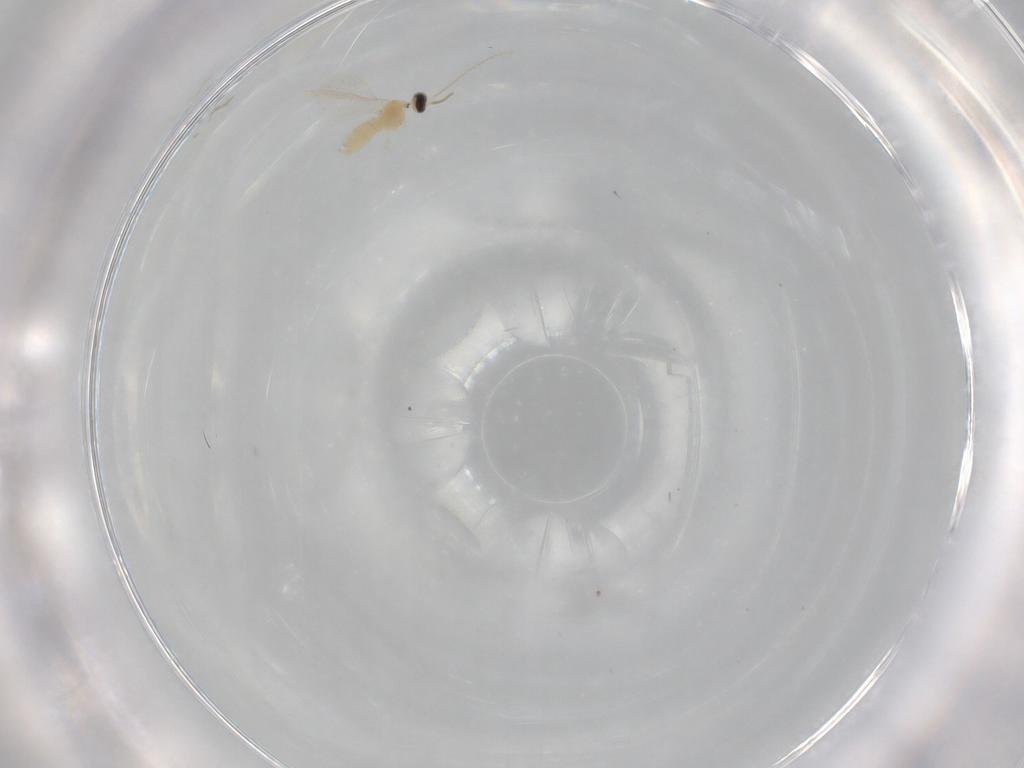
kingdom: Animalia
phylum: Arthropoda
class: Insecta
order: Diptera
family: Cecidomyiidae
